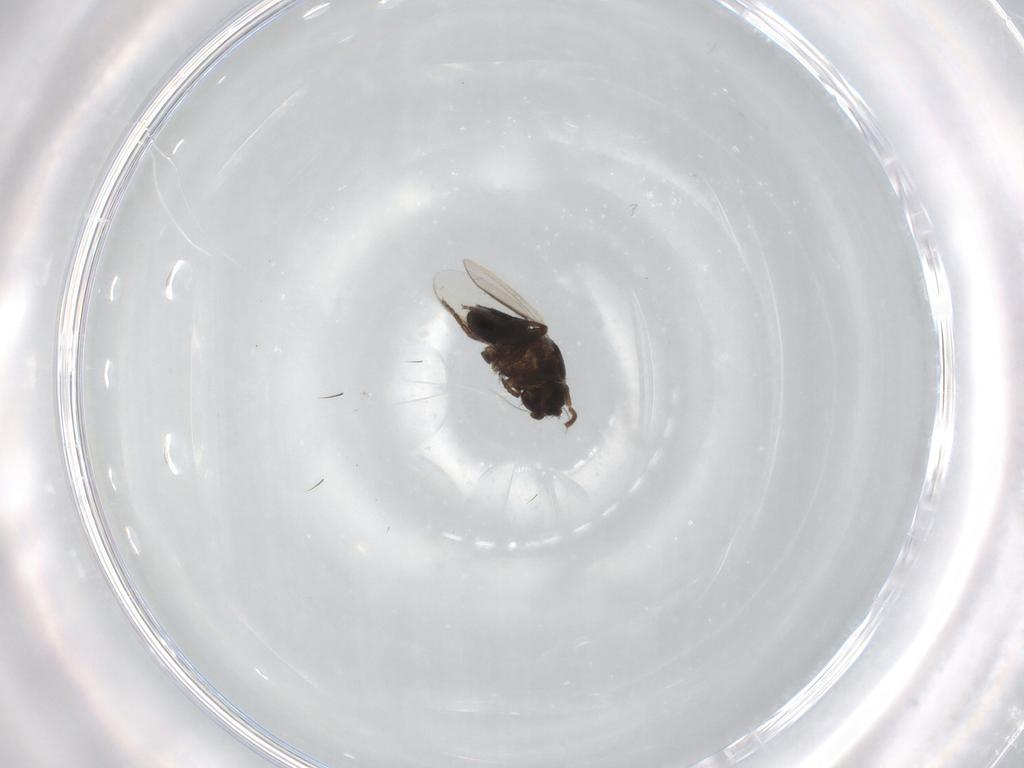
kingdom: Animalia
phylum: Arthropoda
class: Insecta
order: Diptera
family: Sphaeroceridae
